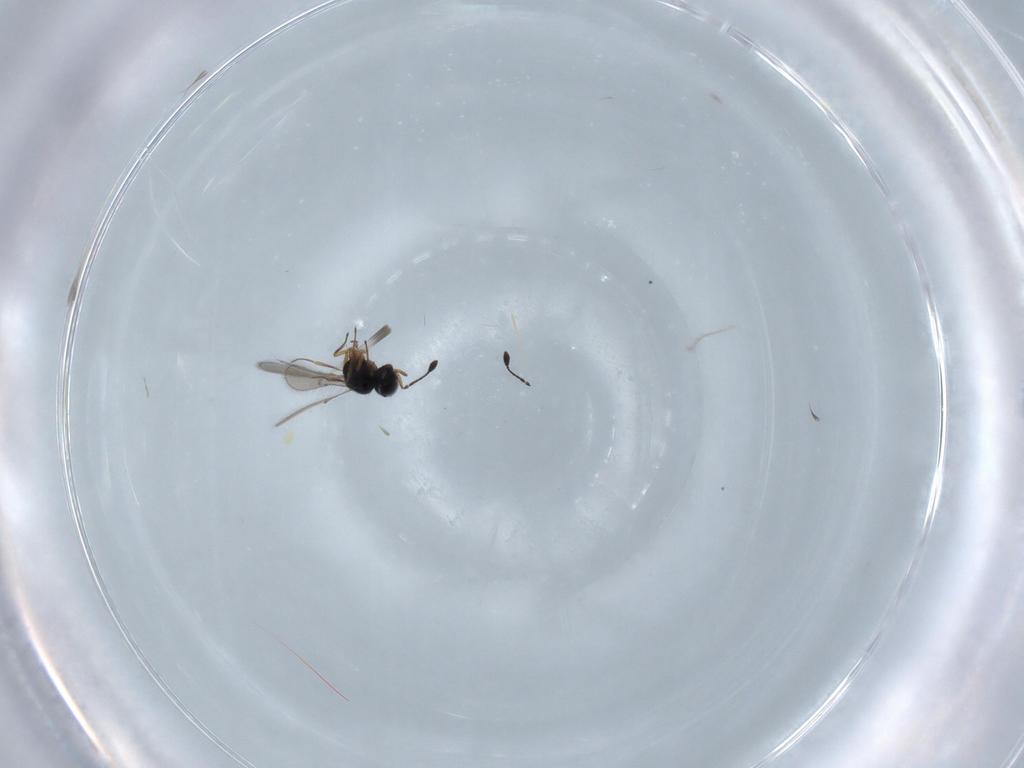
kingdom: Animalia
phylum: Arthropoda
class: Insecta
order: Hymenoptera
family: Scelionidae
